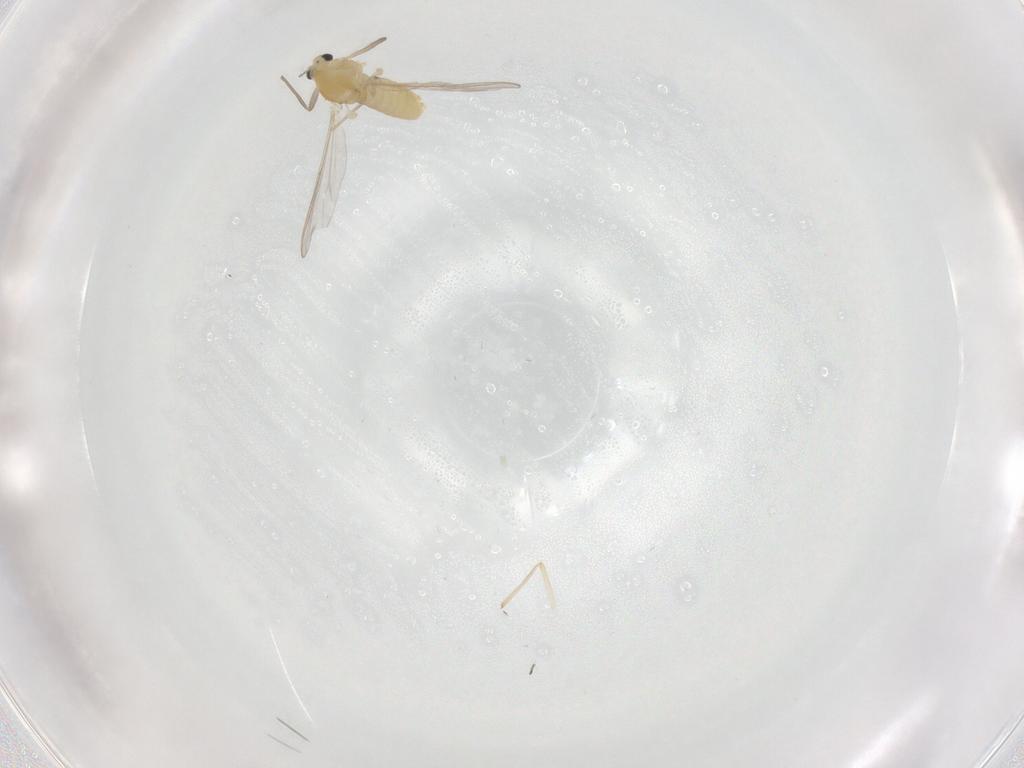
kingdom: Animalia
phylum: Arthropoda
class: Insecta
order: Diptera
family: Chironomidae
